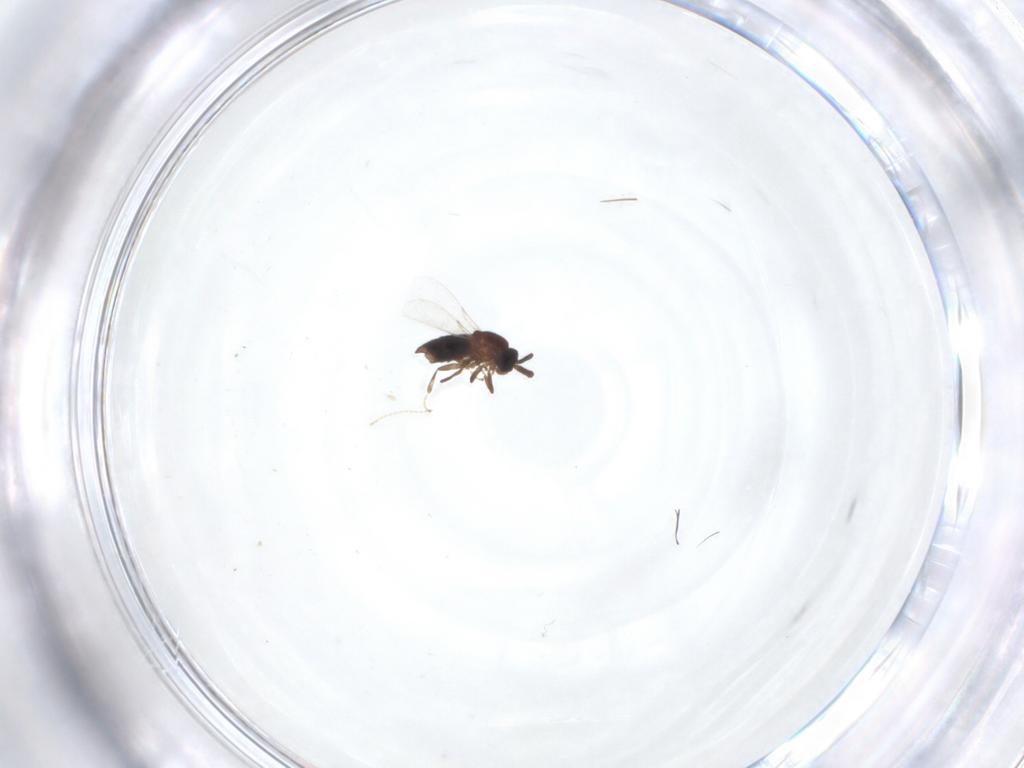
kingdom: Animalia
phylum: Arthropoda
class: Insecta
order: Diptera
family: Scatopsidae
